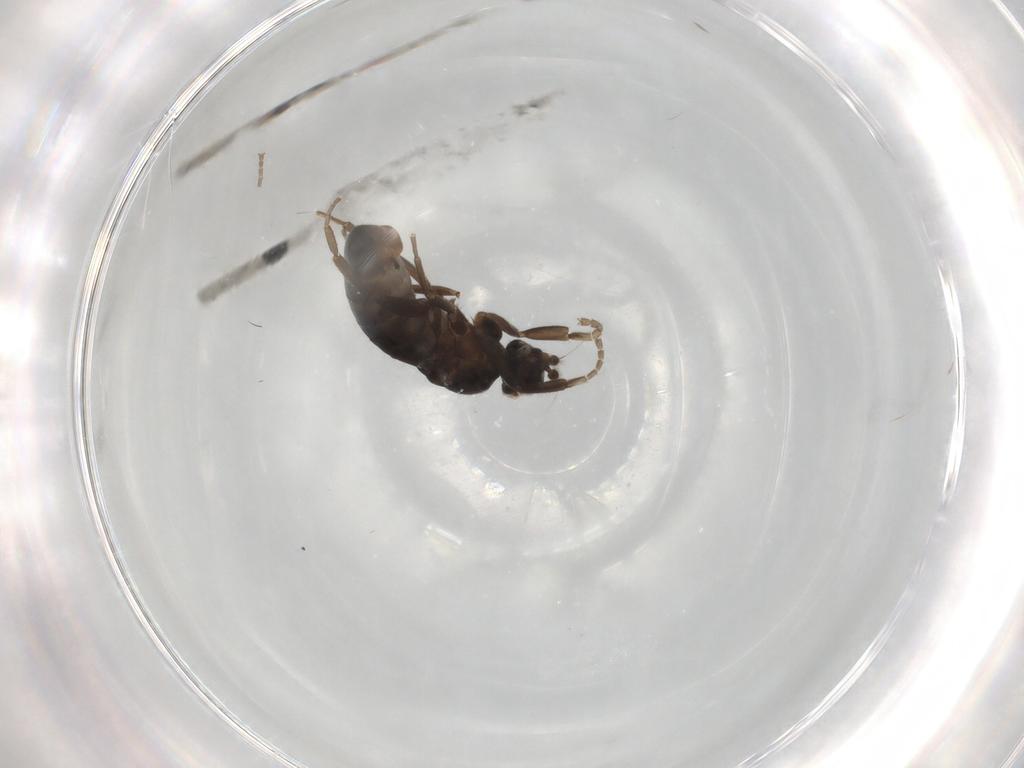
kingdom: Animalia
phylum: Arthropoda
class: Insecta
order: Diptera
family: Phoridae
